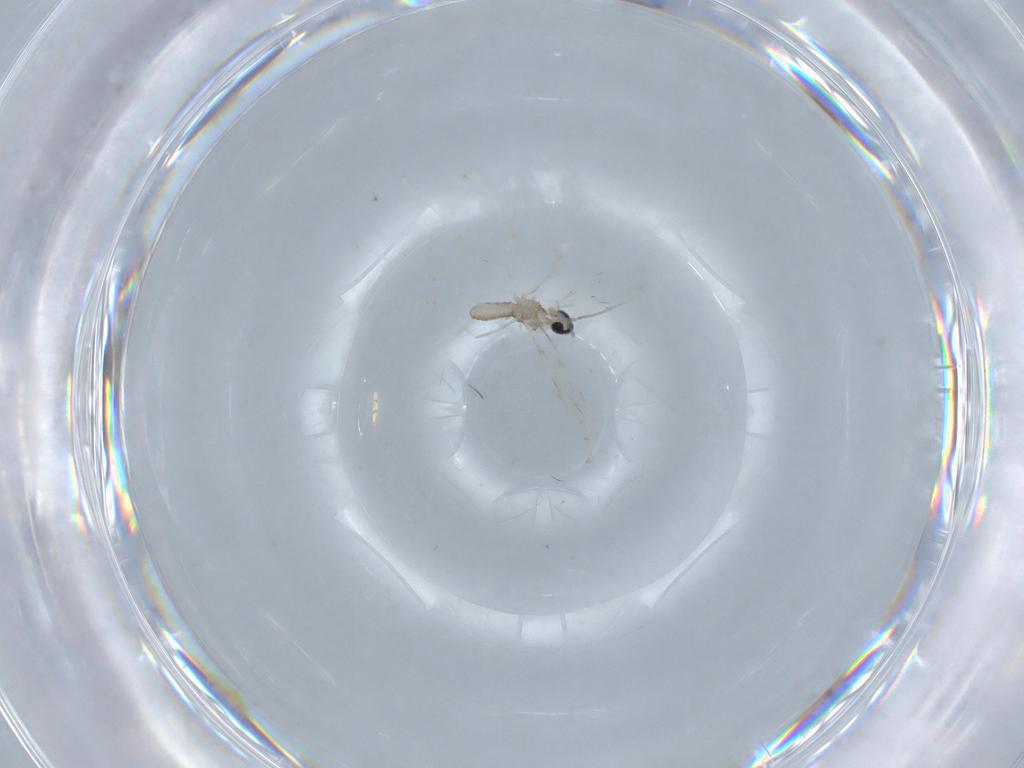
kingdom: Animalia
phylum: Arthropoda
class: Insecta
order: Diptera
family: Cecidomyiidae
